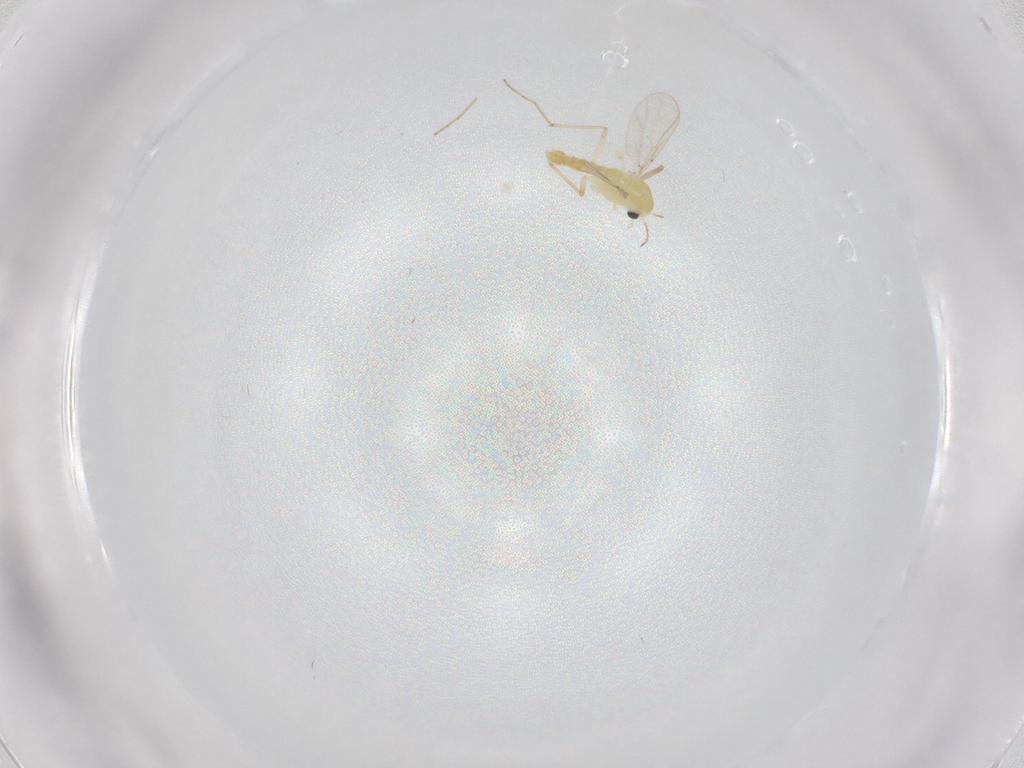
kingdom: Animalia
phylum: Arthropoda
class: Insecta
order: Diptera
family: Chironomidae
